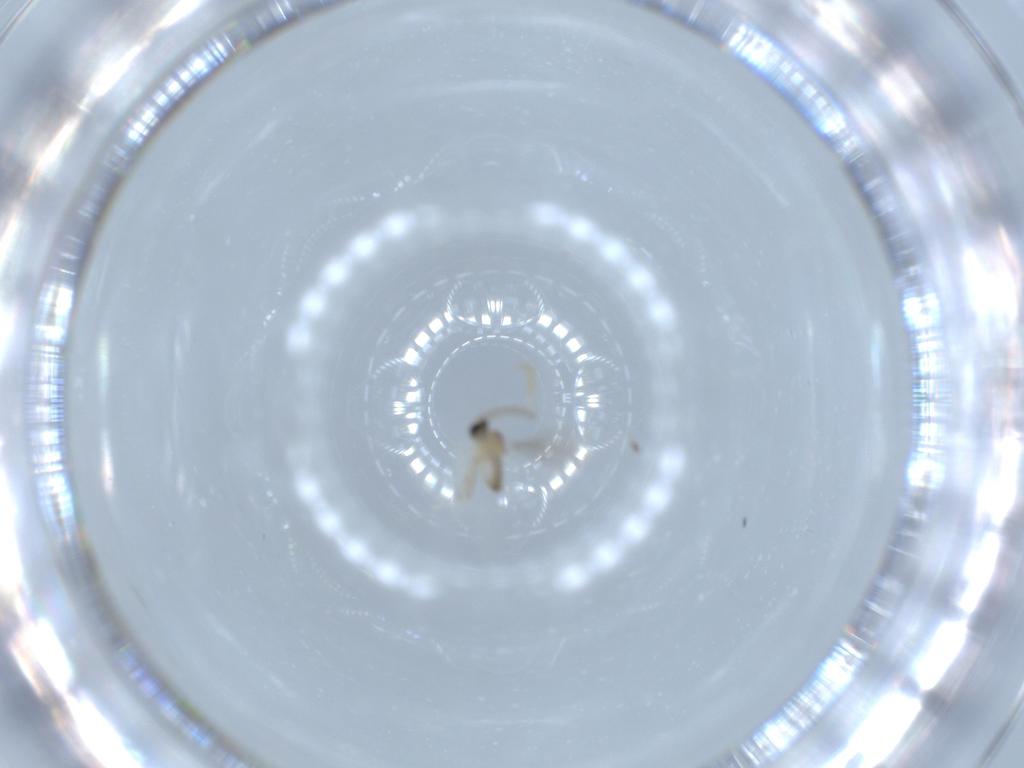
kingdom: Animalia
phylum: Arthropoda
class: Insecta
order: Diptera
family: Cecidomyiidae
